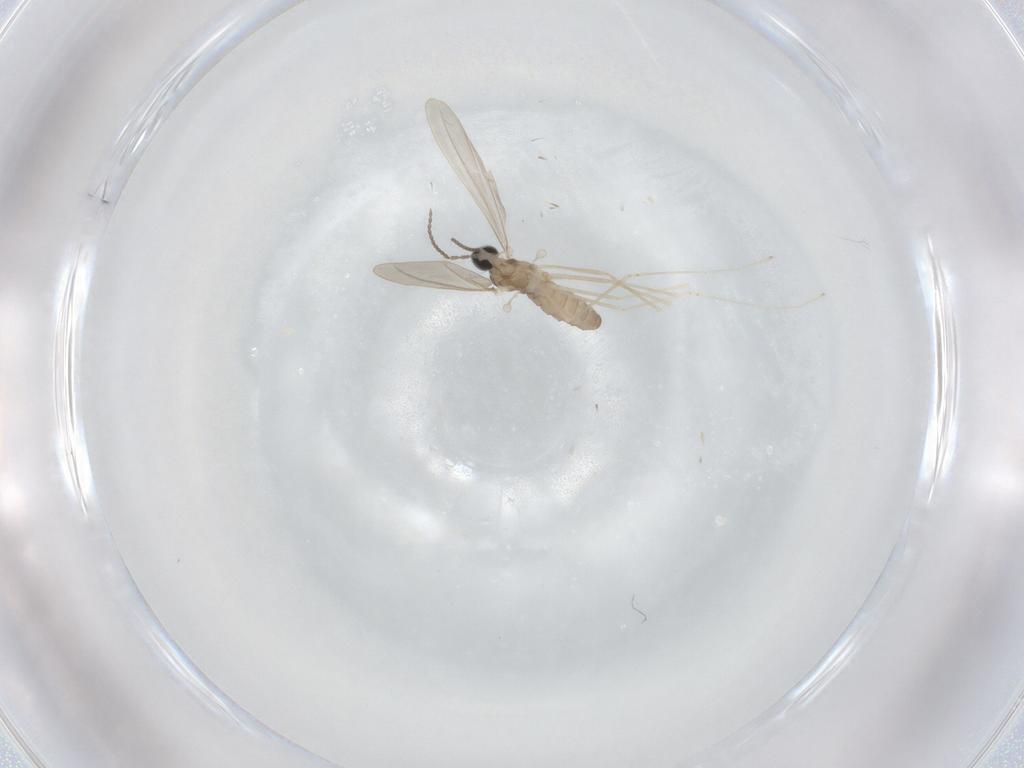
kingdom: Animalia
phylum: Arthropoda
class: Insecta
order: Diptera
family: Cecidomyiidae
